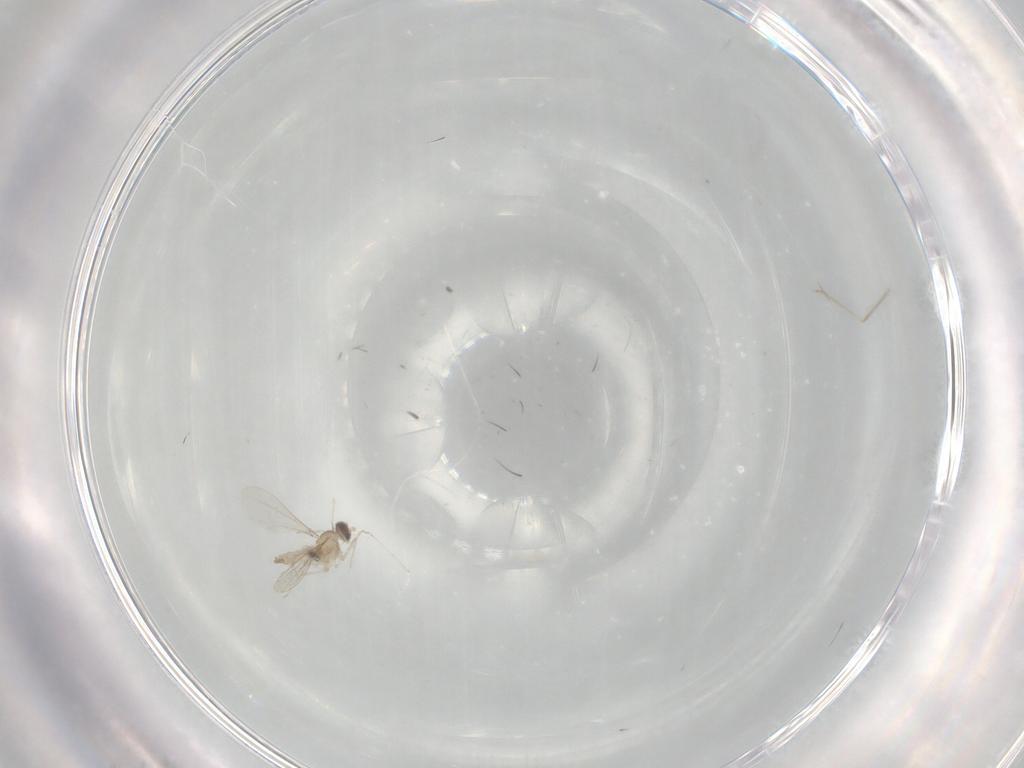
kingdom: Animalia
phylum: Arthropoda
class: Insecta
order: Diptera
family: Cecidomyiidae
